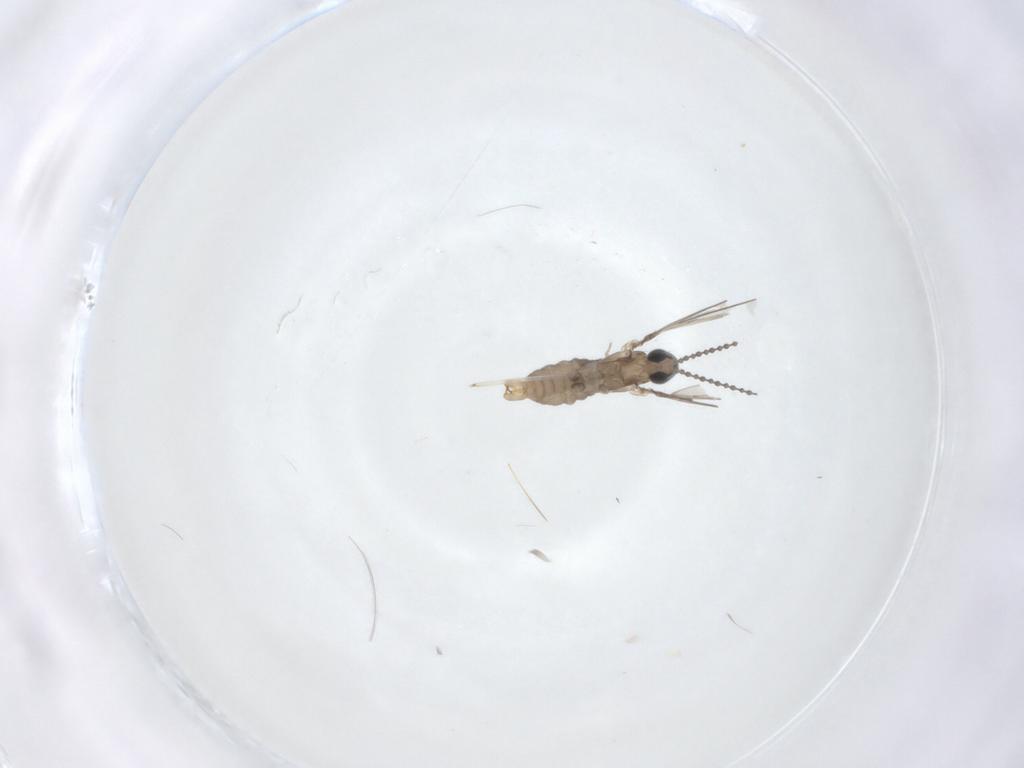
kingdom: Animalia
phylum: Arthropoda
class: Insecta
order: Diptera
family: Cecidomyiidae
